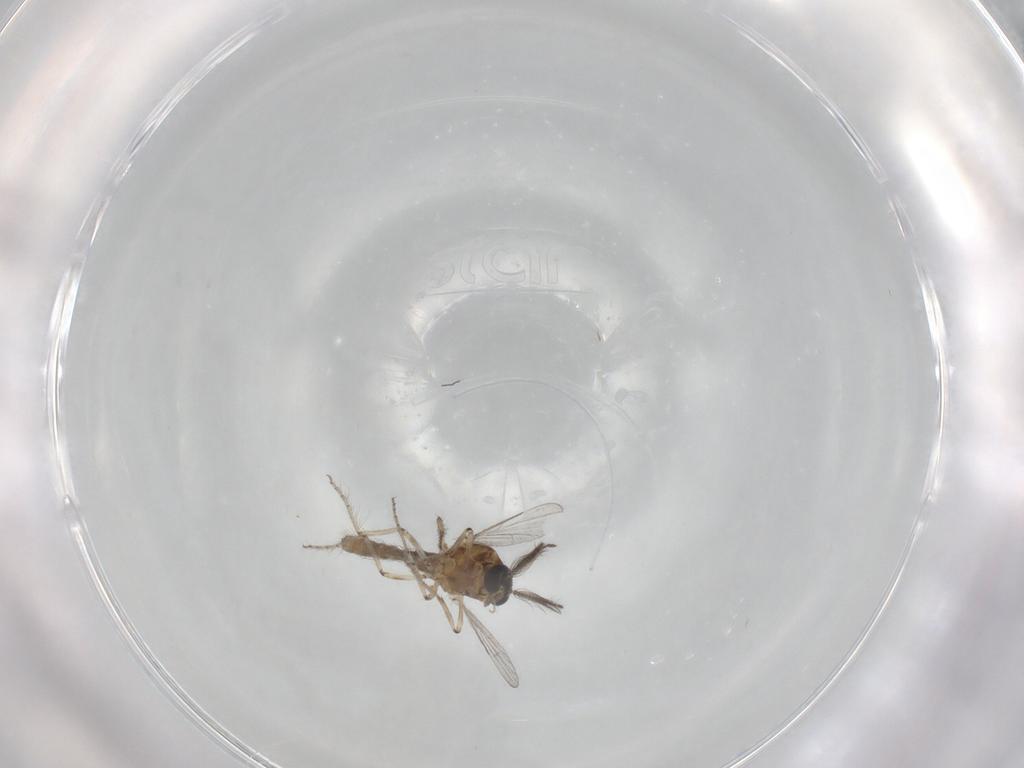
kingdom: Animalia
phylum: Arthropoda
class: Insecta
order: Diptera
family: Ceratopogonidae
